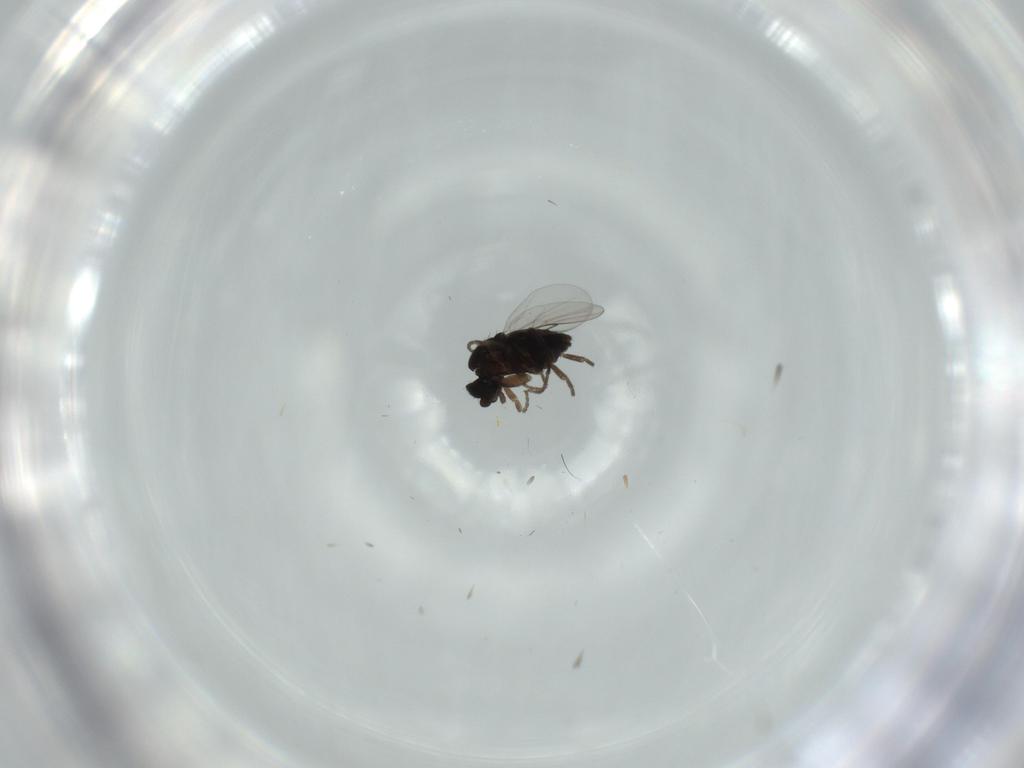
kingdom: Animalia
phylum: Arthropoda
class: Insecta
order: Diptera
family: Phoridae
